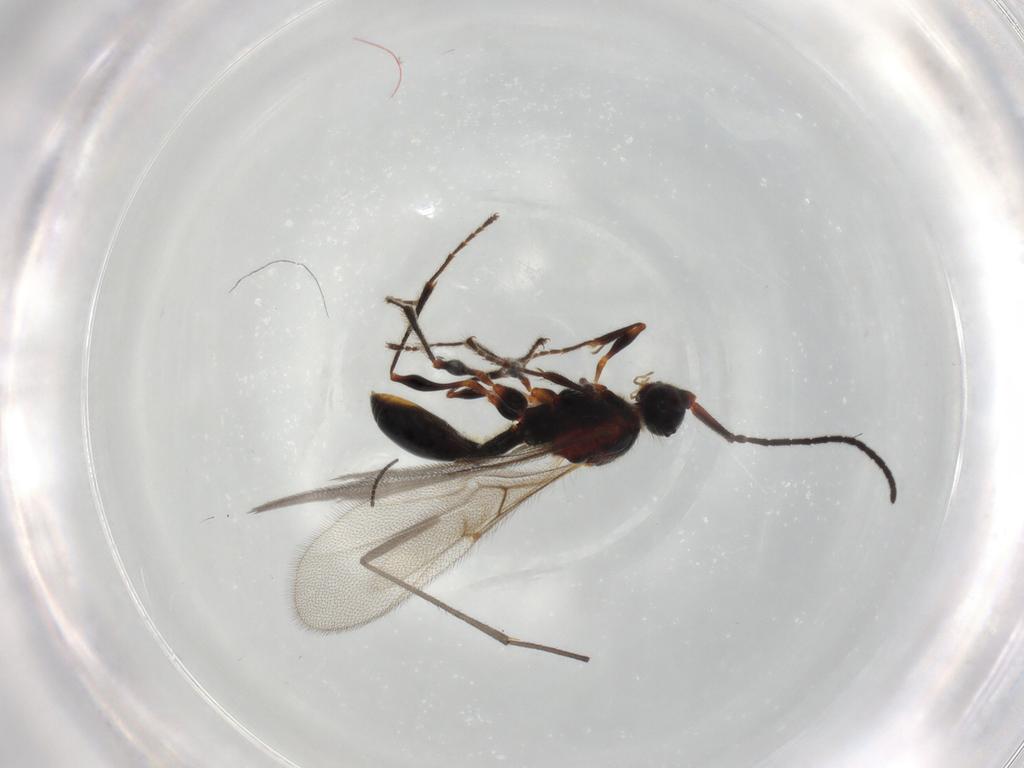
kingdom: Animalia
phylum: Arthropoda
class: Insecta
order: Hymenoptera
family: Diapriidae
